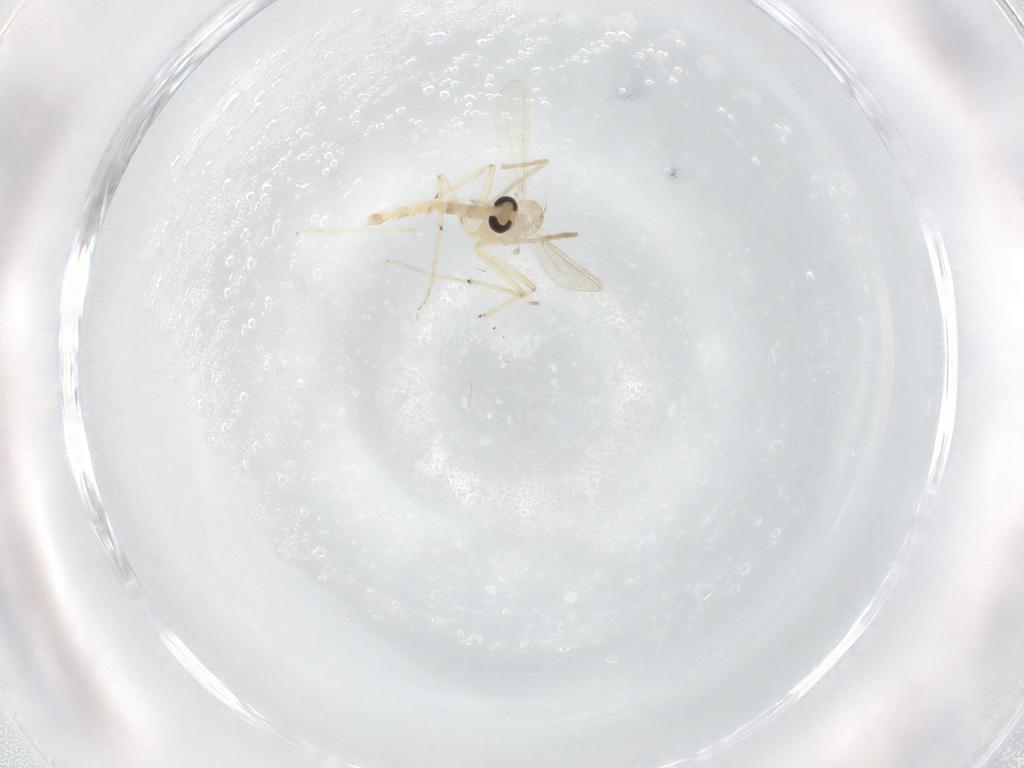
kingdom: Animalia
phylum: Arthropoda
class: Insecta
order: Diptera
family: Chironomidae
